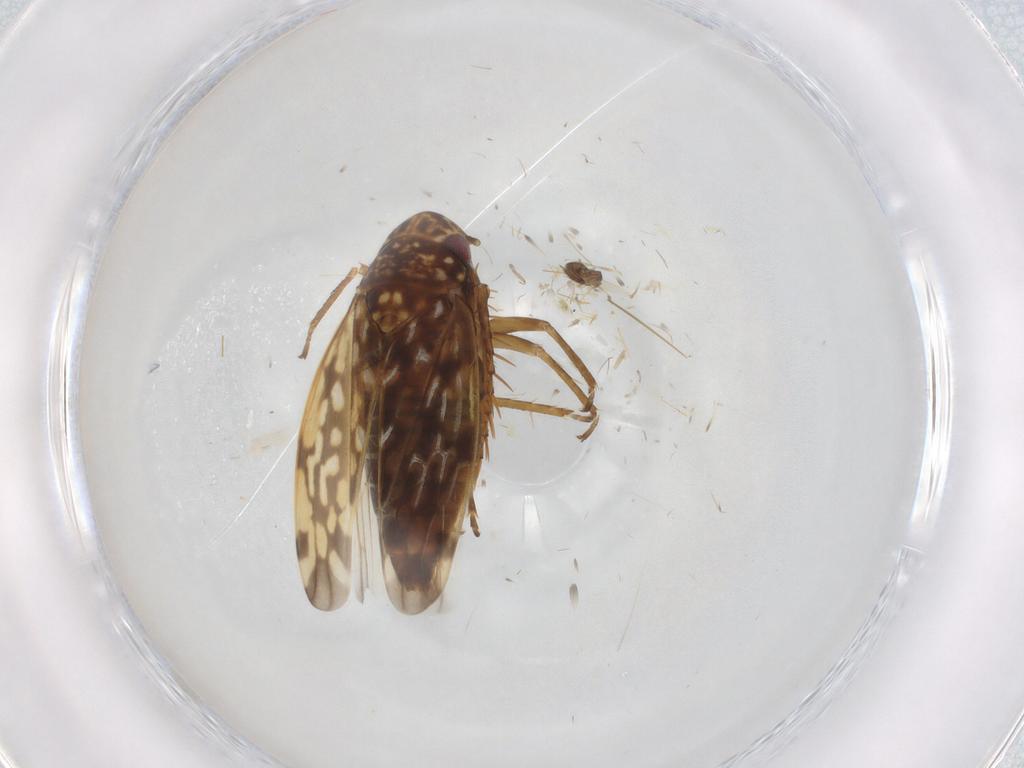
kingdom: Animalia
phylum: Arthropoda
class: Insecta
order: Hemiptera
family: Cicadellidae
